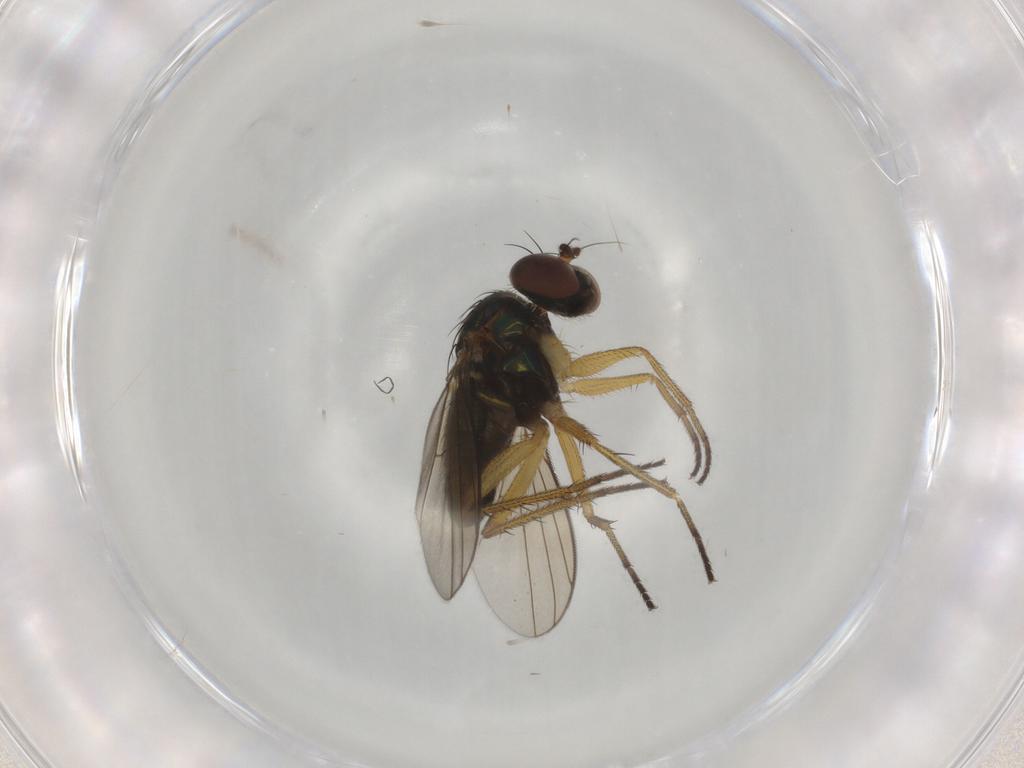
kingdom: Animalia
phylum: Arthropoda
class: Insecta
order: Diptera
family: Dolichopodidae
